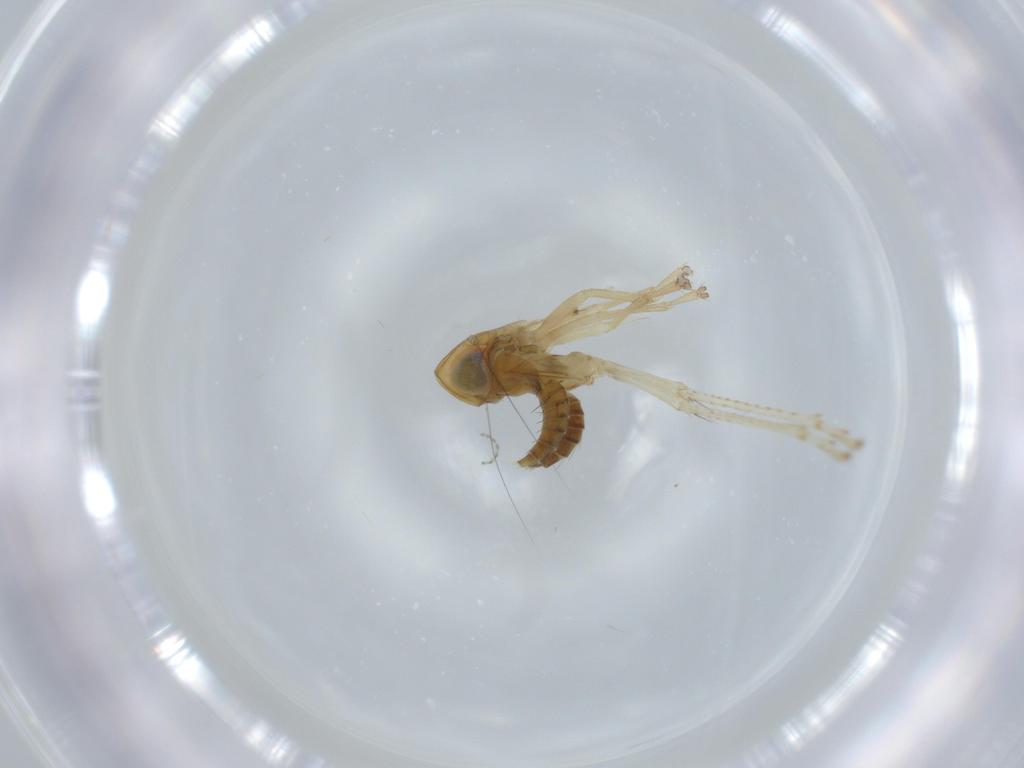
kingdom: Animalia
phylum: Arthropoda
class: Insecta
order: Hemiptera
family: Cicadellidae
